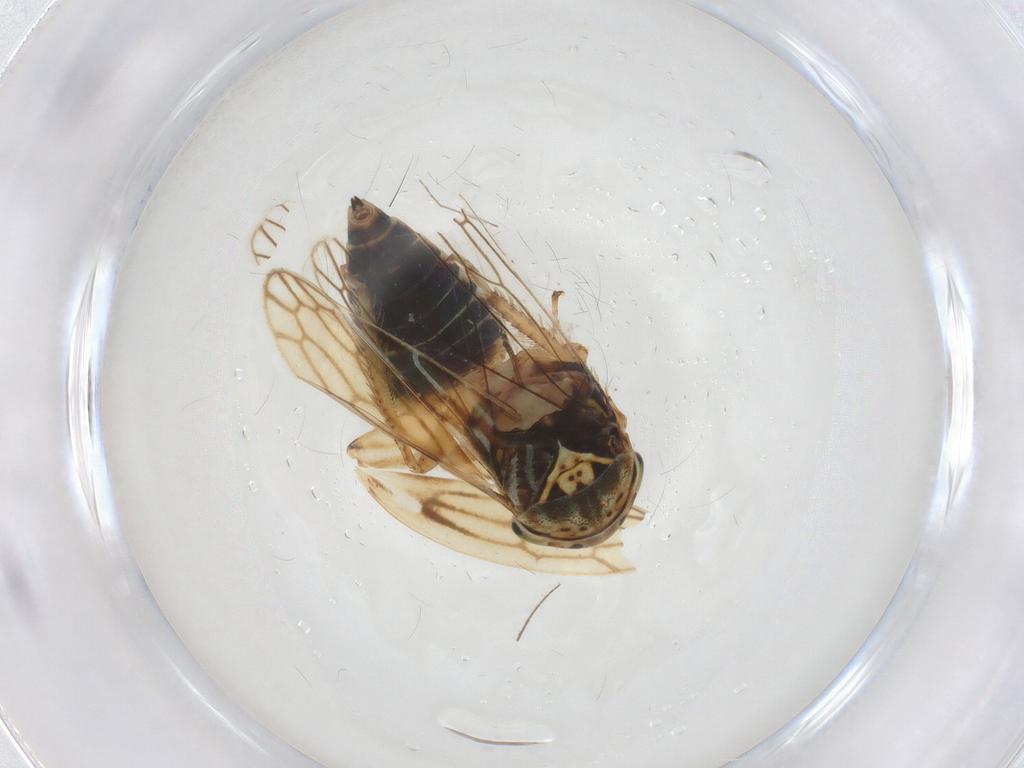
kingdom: Animalia
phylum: Arthropoda
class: Insecta
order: Hemiptera
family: Cicadellidae
